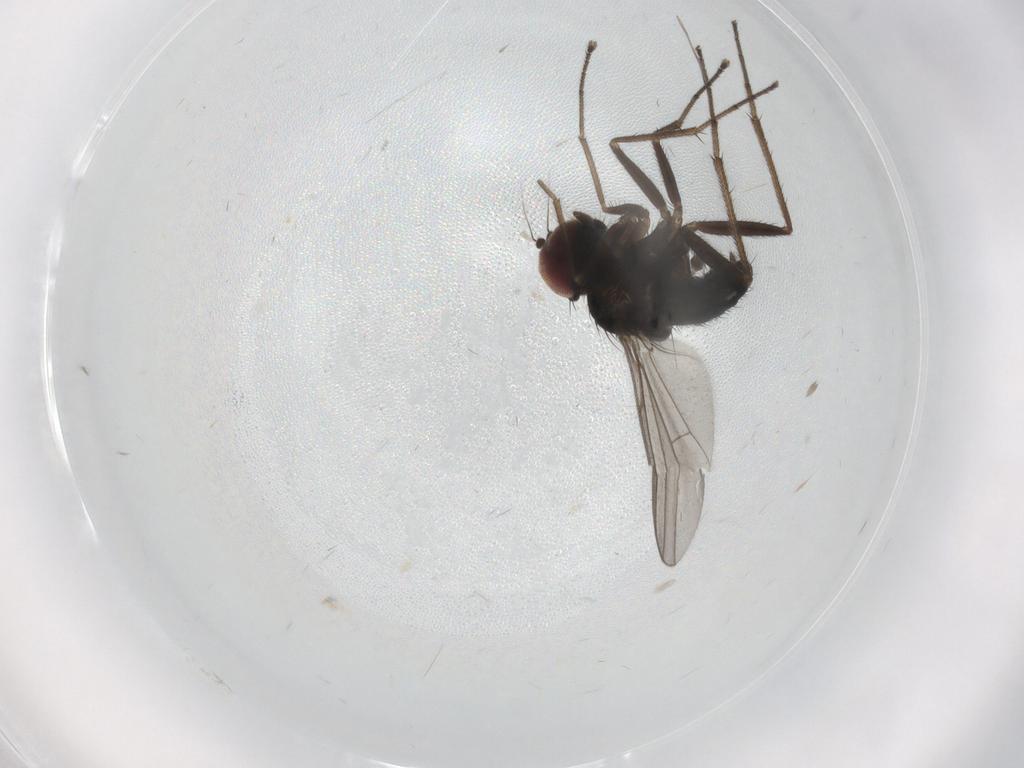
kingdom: Animalia
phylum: Arthropoda
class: Insecta
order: Diptera
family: Dolichopodidae
